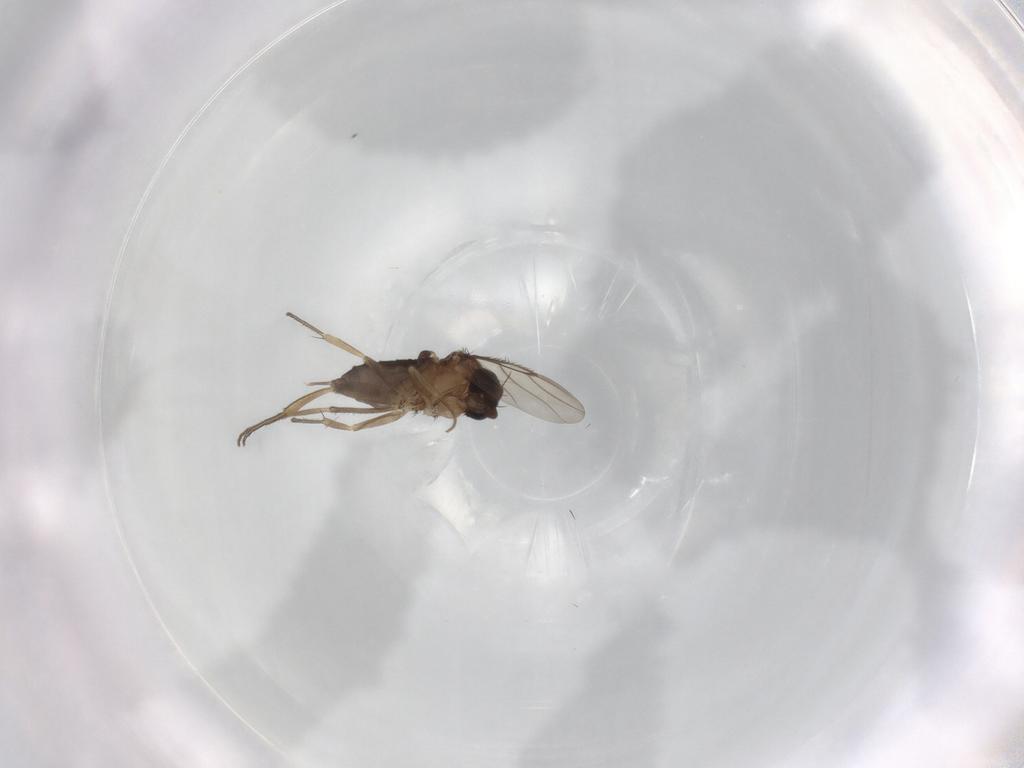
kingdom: Animalia
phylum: Arthropoda
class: Insecta
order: Diptera
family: Phoridae
